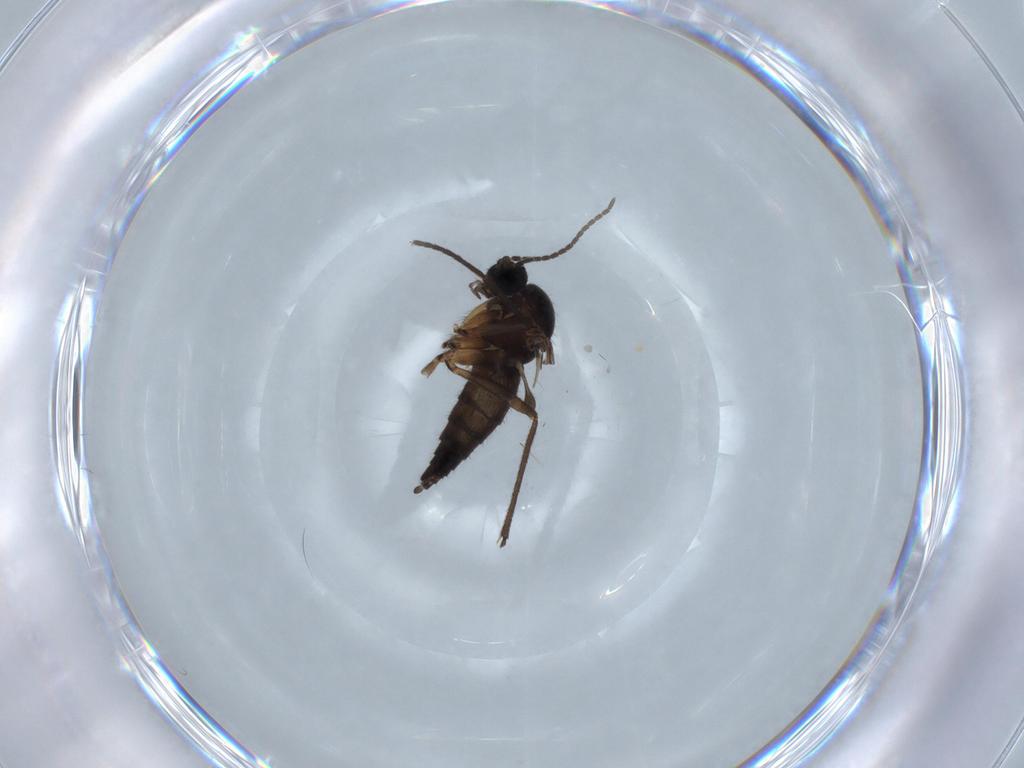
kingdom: Animalia
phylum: Arthropoda
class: Insecta
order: Diptera
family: Sciaridae
